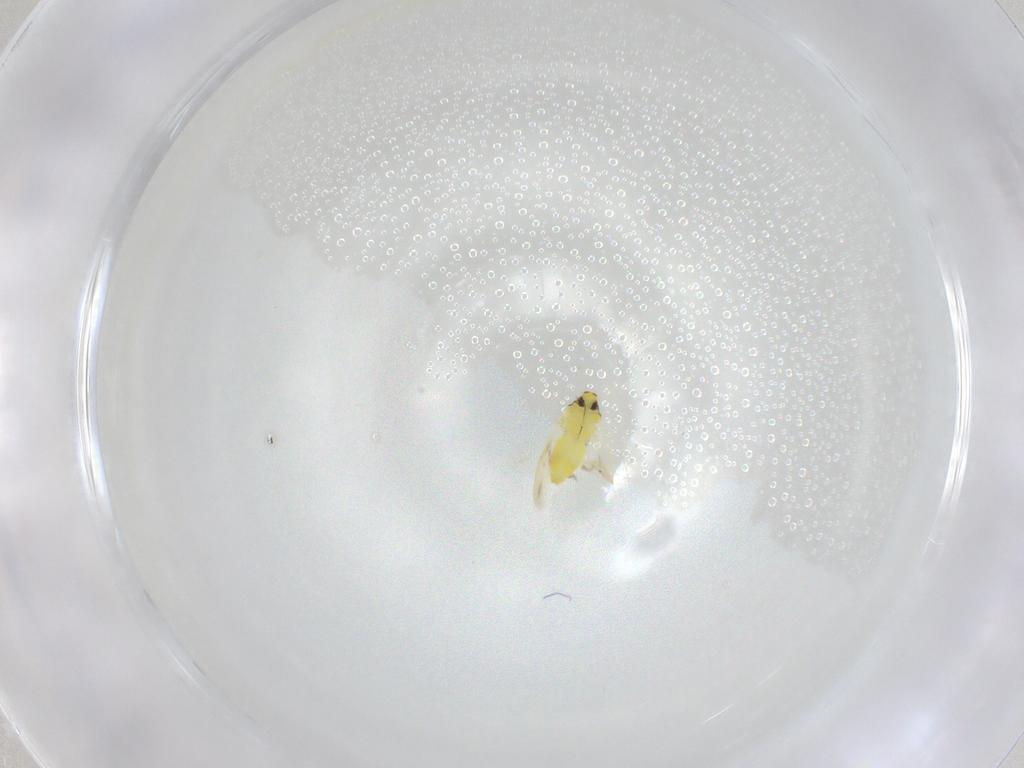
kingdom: Animalia
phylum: Arthropoda
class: Insecta
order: Hemiptera
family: Aleyrodidae
